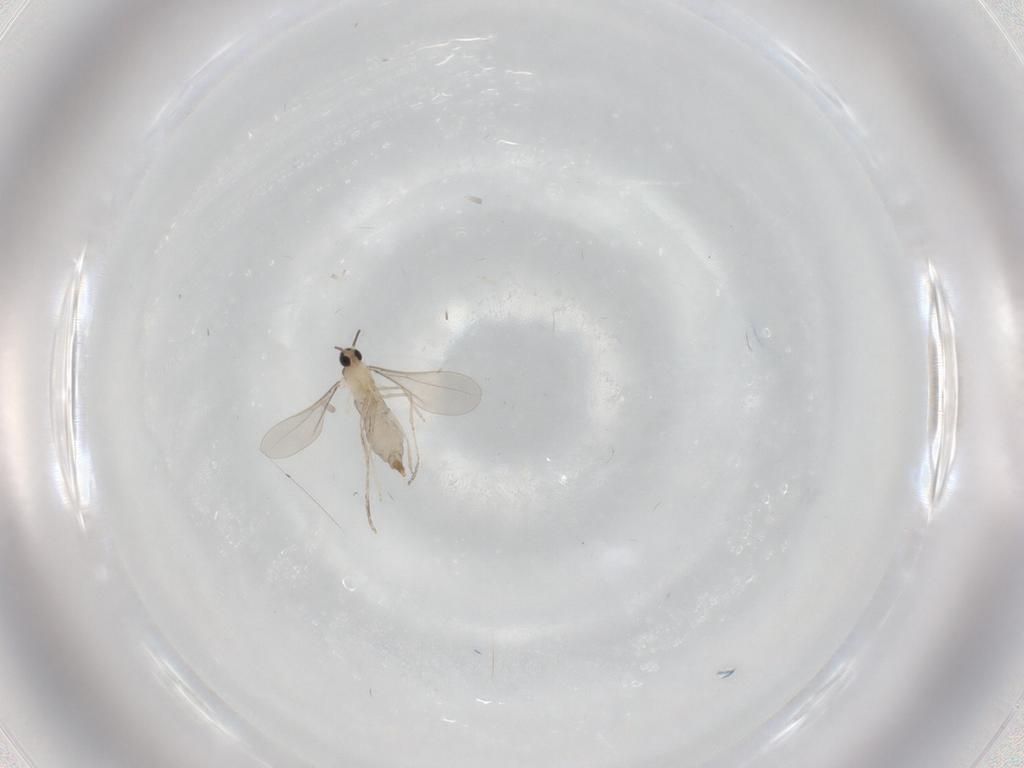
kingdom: Animalia
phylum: Arthropoda
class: Insecta
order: Diptera
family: Cecidomyiidae
